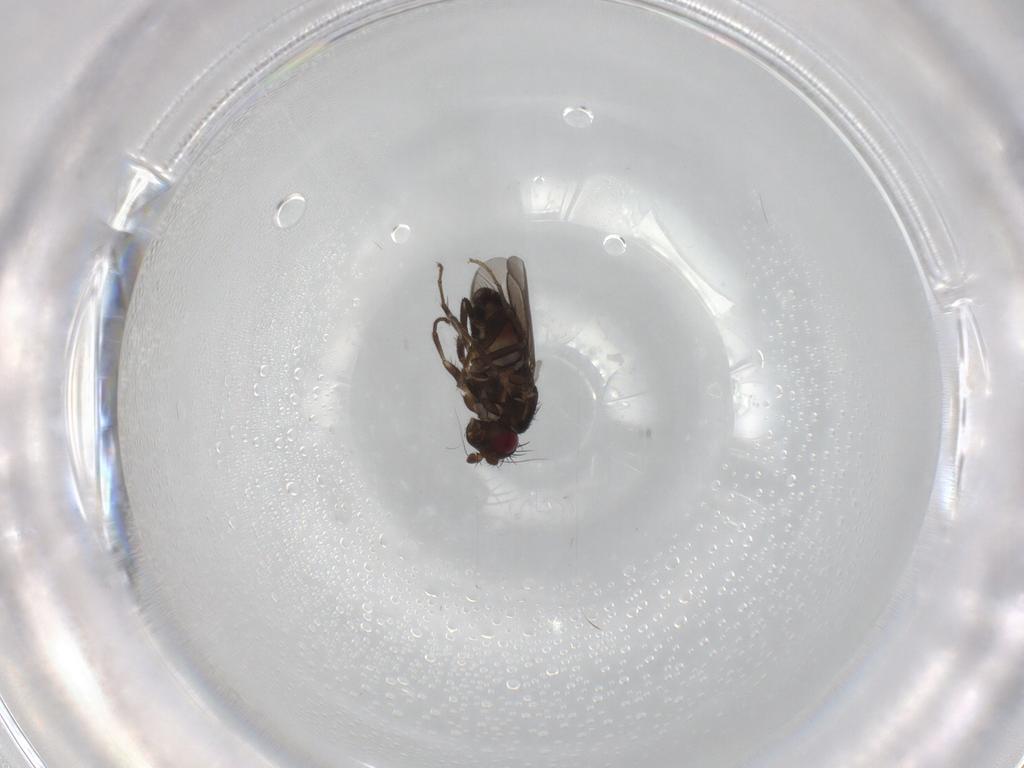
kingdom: Animalia
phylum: Arthropoda
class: Insecta
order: Diptera
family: Sphaeroceridae
